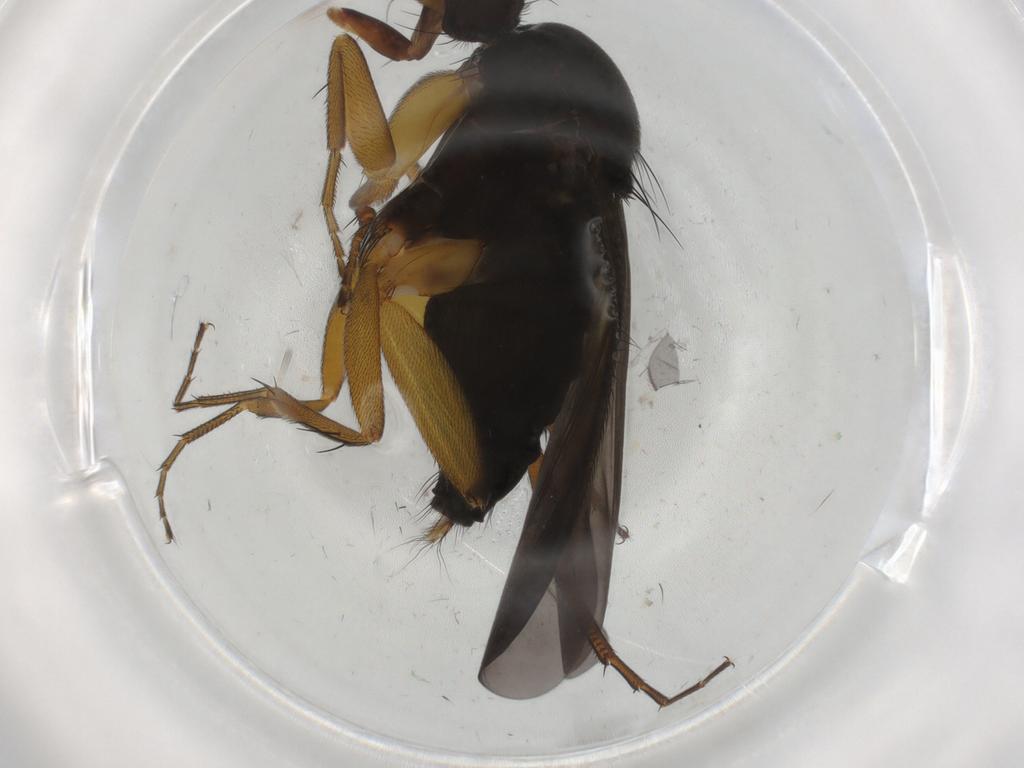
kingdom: Animalia
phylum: Arthropoda
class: Insecta
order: Diptera
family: Phoridae
